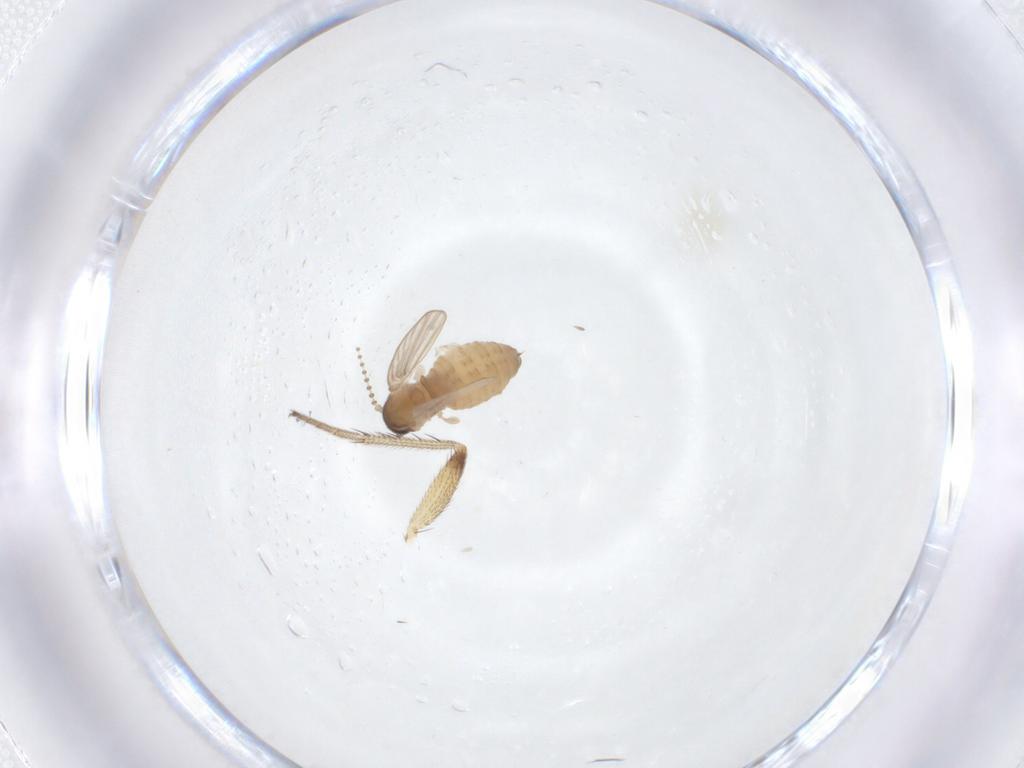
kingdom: Animalia
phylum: Arthropoda
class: Insecta
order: Diptera
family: Dolichopodidae
